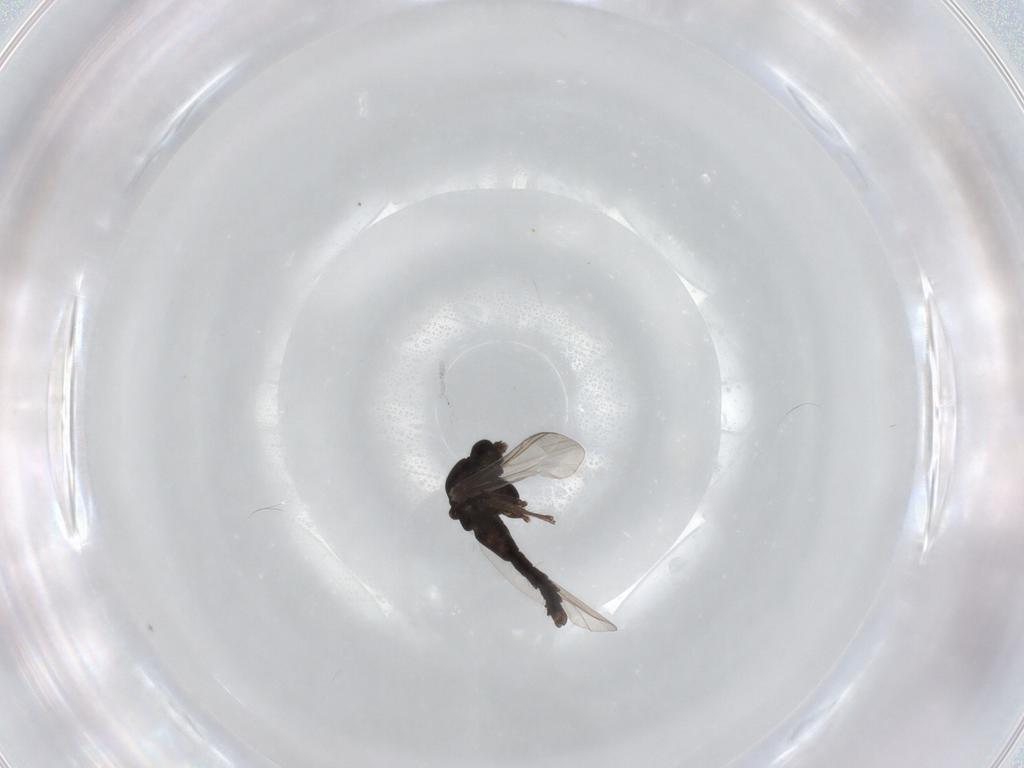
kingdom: Animalia
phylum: Arthropoda
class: Insecta
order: Diptera
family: Chironomidae
